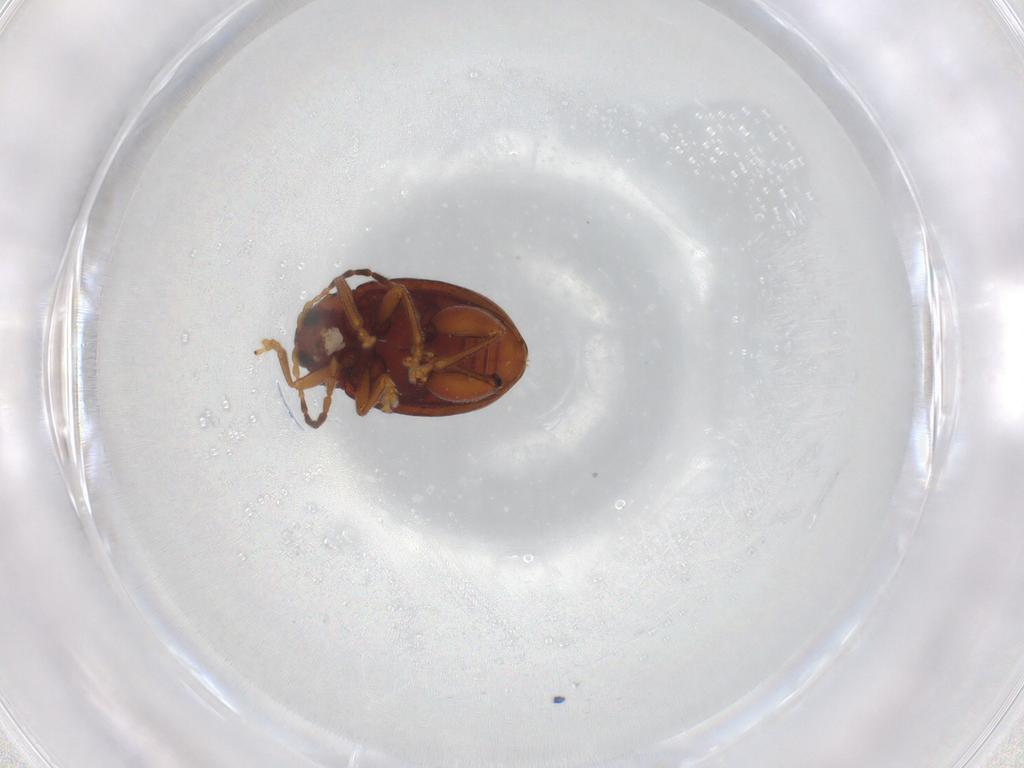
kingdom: Animalia
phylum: Arthropoda
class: Insecta
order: Coleoptera
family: Chrysomelidae
